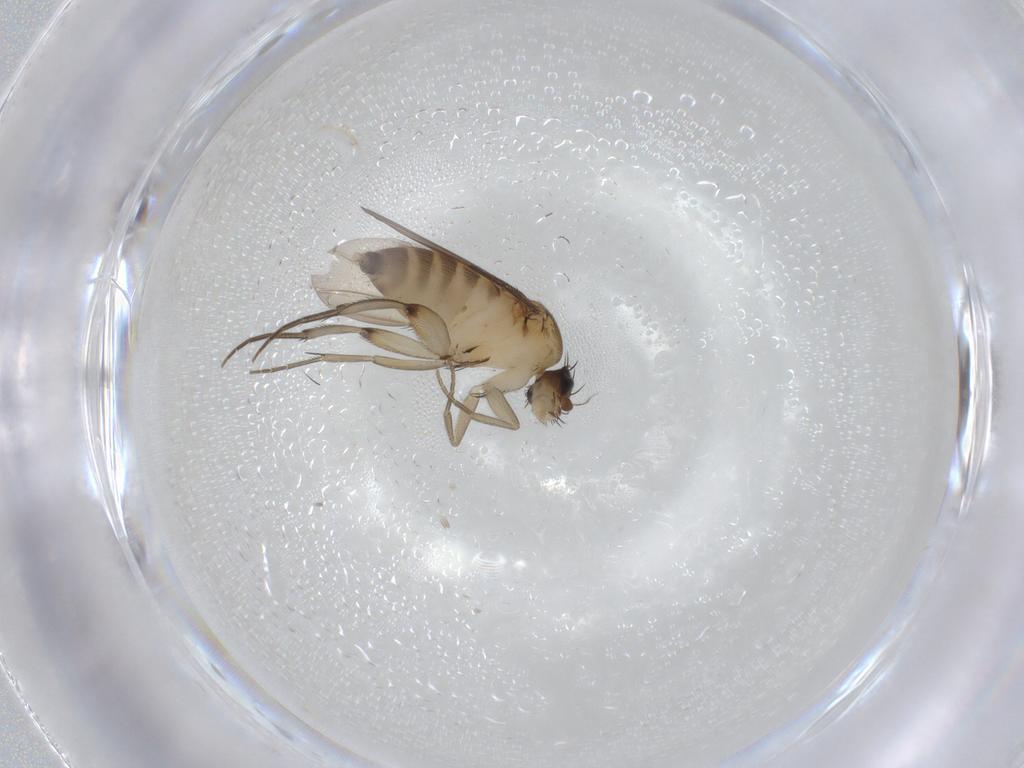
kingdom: Animalia
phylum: Arthropoda
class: Insecta
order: Diptera
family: Phoridae
